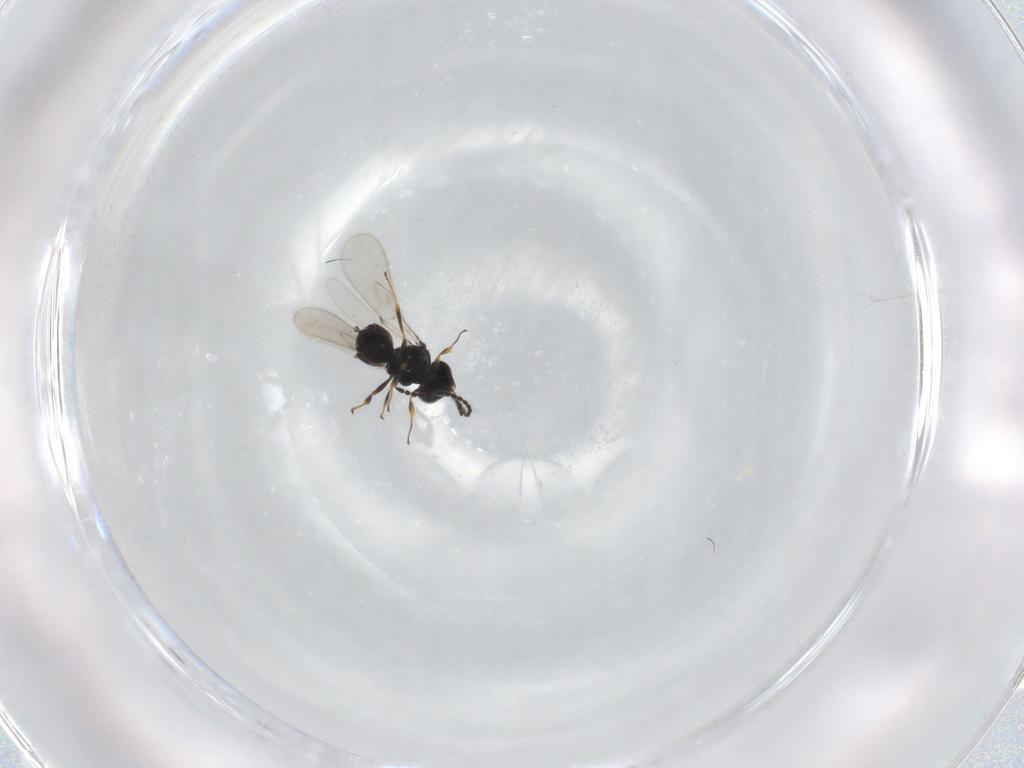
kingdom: Animalia
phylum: Arthropoda
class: Insecta
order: Hymenoptera
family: Scelionidae
